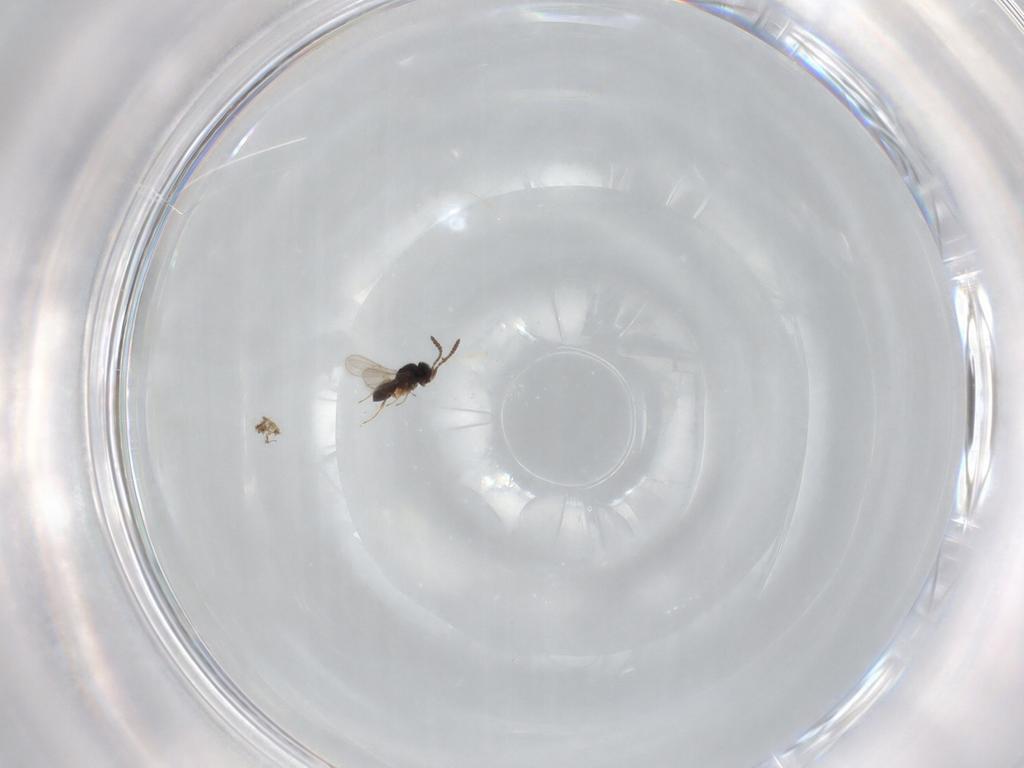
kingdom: Animalia
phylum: Arthropoda
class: Insecta
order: Hymenoptera
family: Scelionidae
